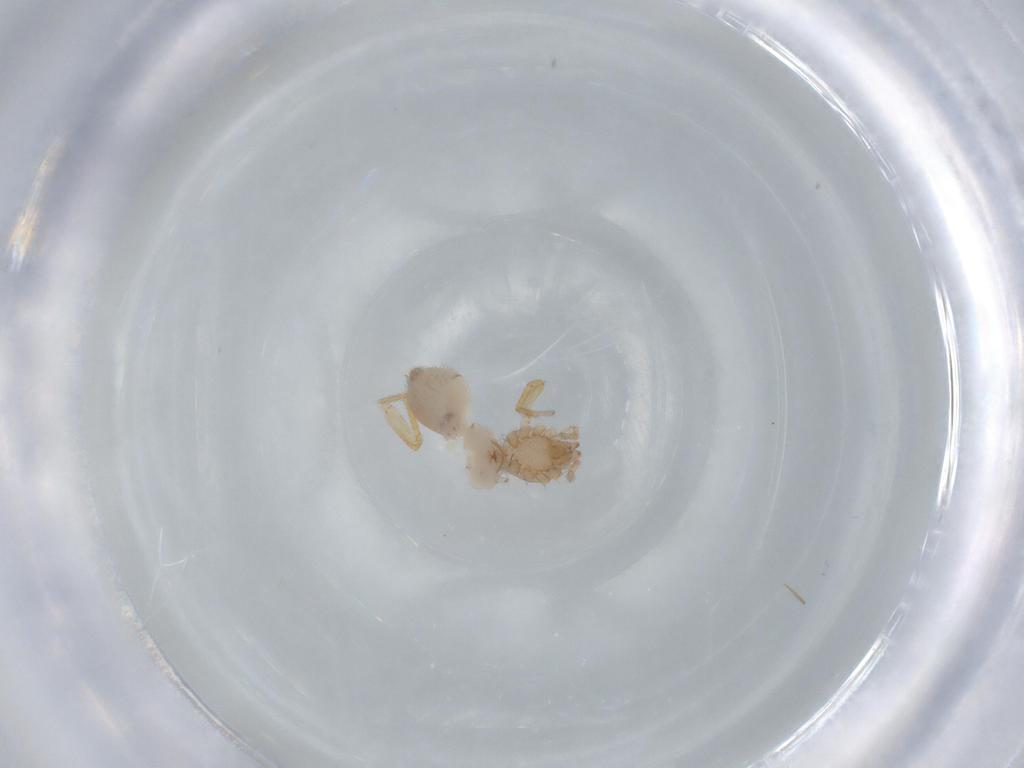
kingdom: Animalia
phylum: Arthropoda
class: Arachnida
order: Araneae
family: Oonopidae
